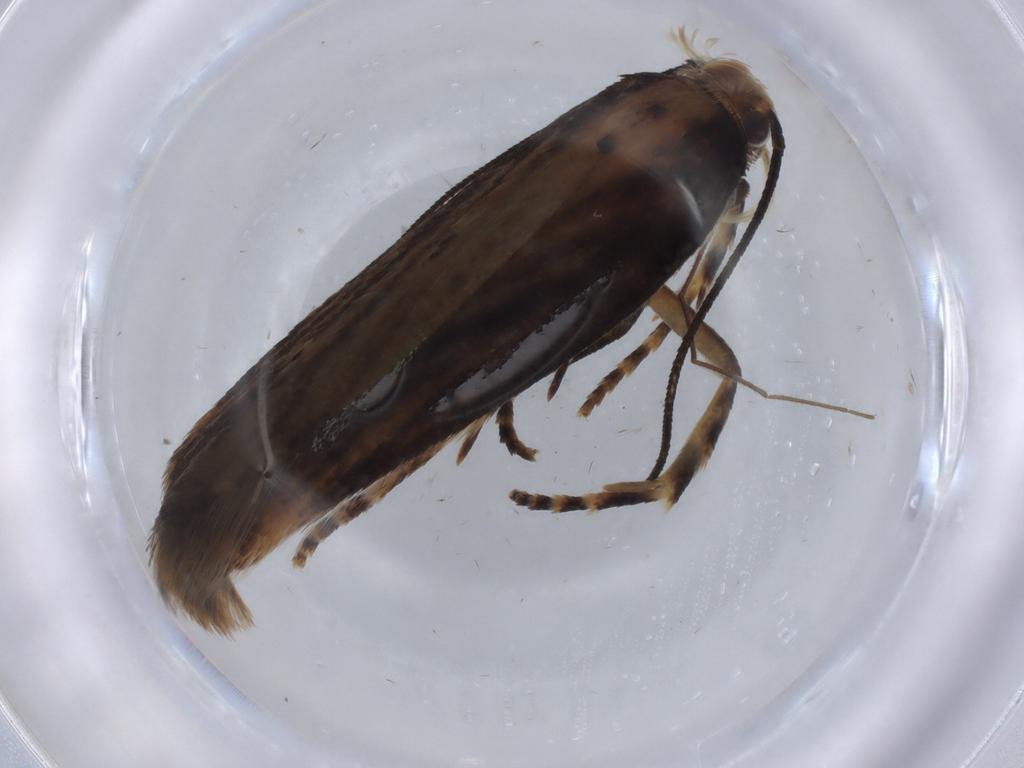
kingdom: Animalia
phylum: Arthropoda
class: Insecta
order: Lepidoptera
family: Gelechiidae
